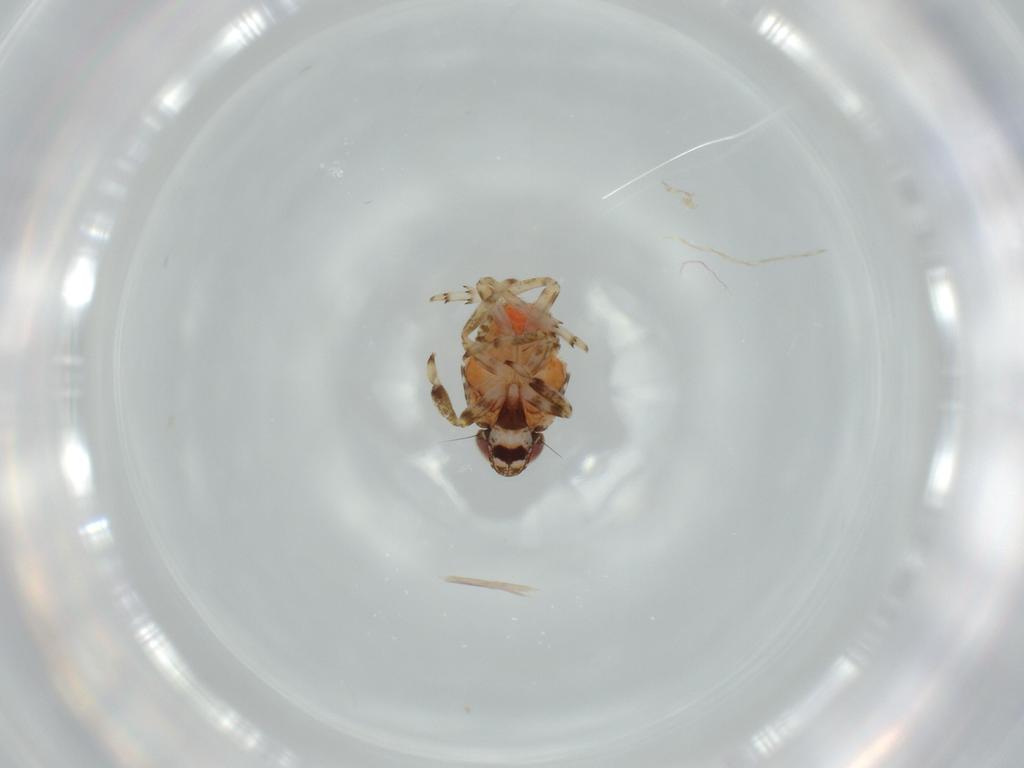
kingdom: Animalia
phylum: Arthropoda
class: Insecta
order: Hemiptera
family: Issidae
